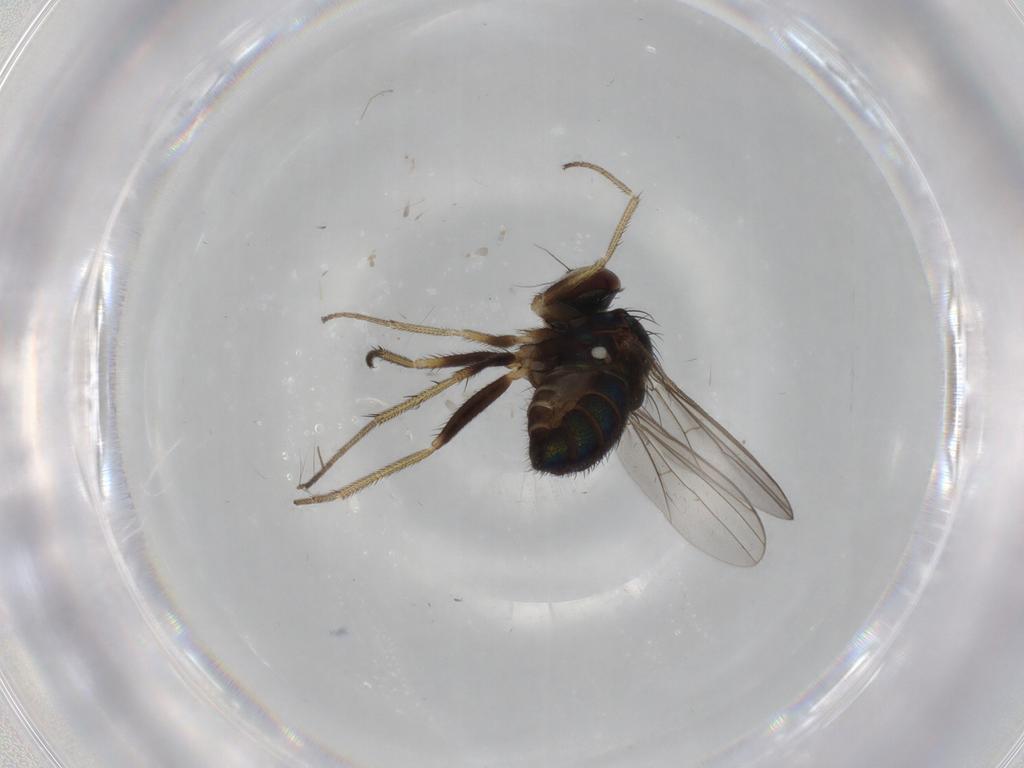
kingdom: Animalia
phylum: Arthropoda
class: Insecta
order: Diptera
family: Dolichopodidae
